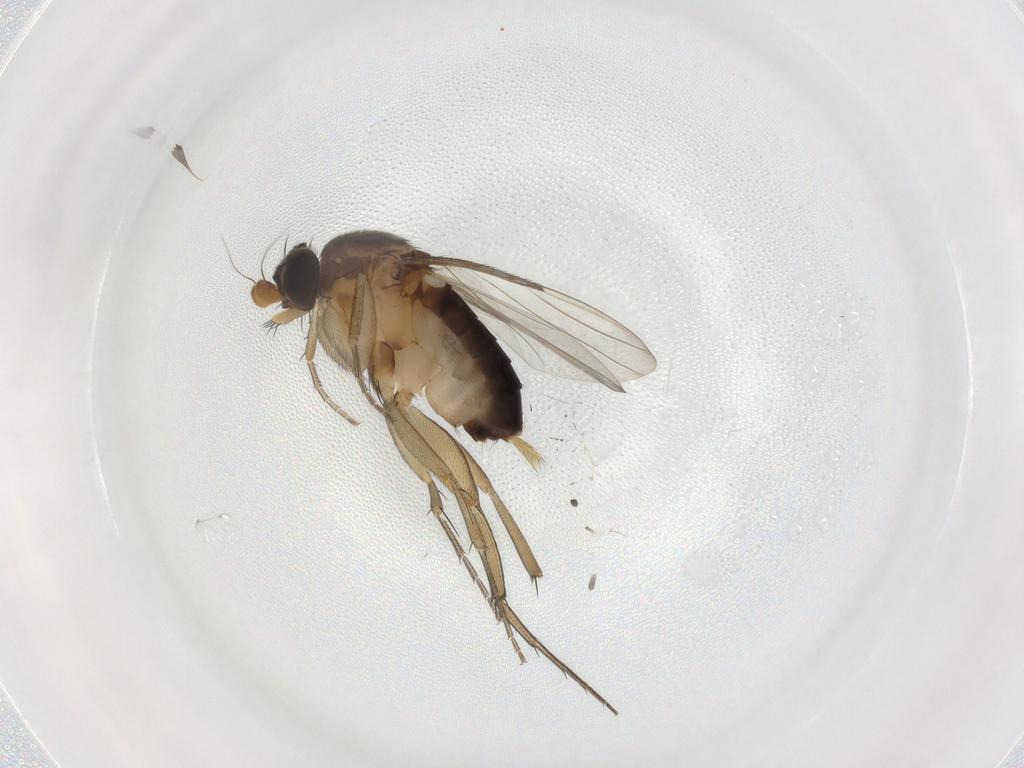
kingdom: Animalia
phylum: Arthropoda
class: Insecta
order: Diptera
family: Phoridae
